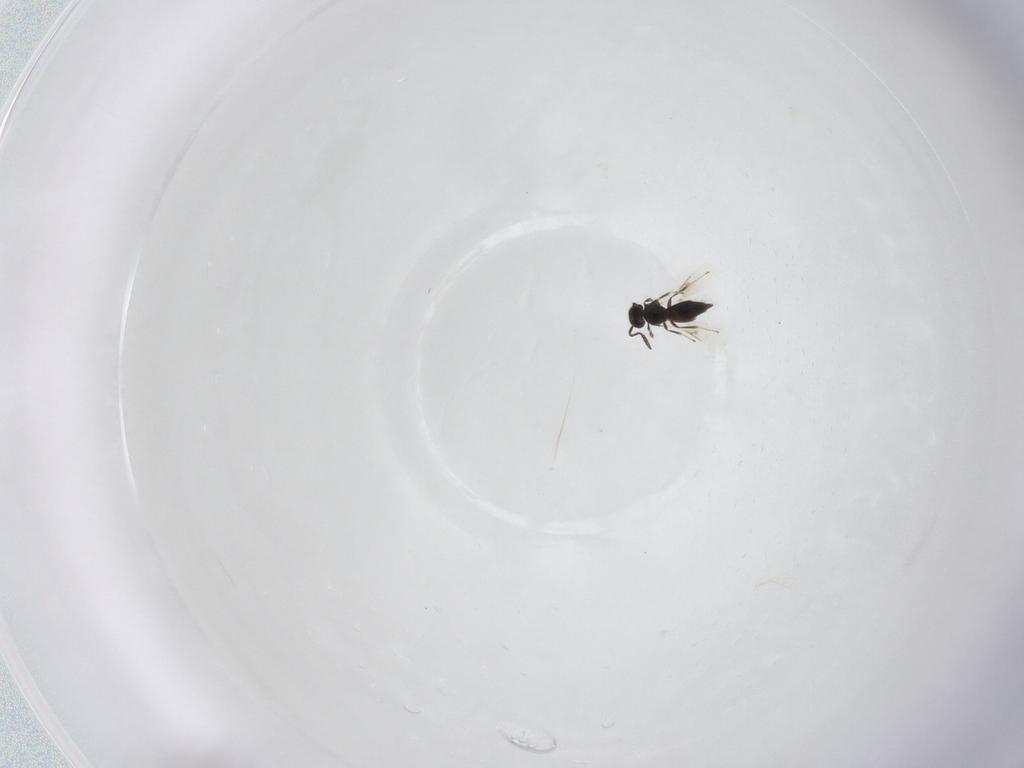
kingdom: Animalia
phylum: Arthropoda
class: Insecta
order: Hymenoptera
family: Scelionidae
